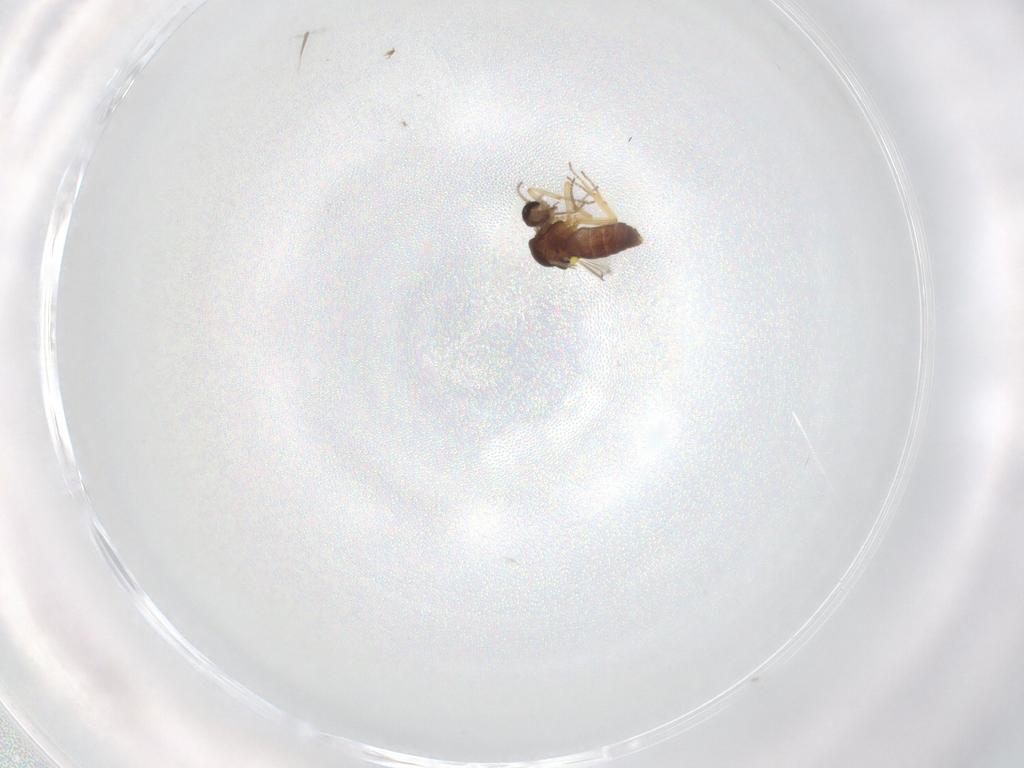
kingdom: Animalia
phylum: Arthropoda
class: Insecta
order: Diptera
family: Ceratopogonidae
